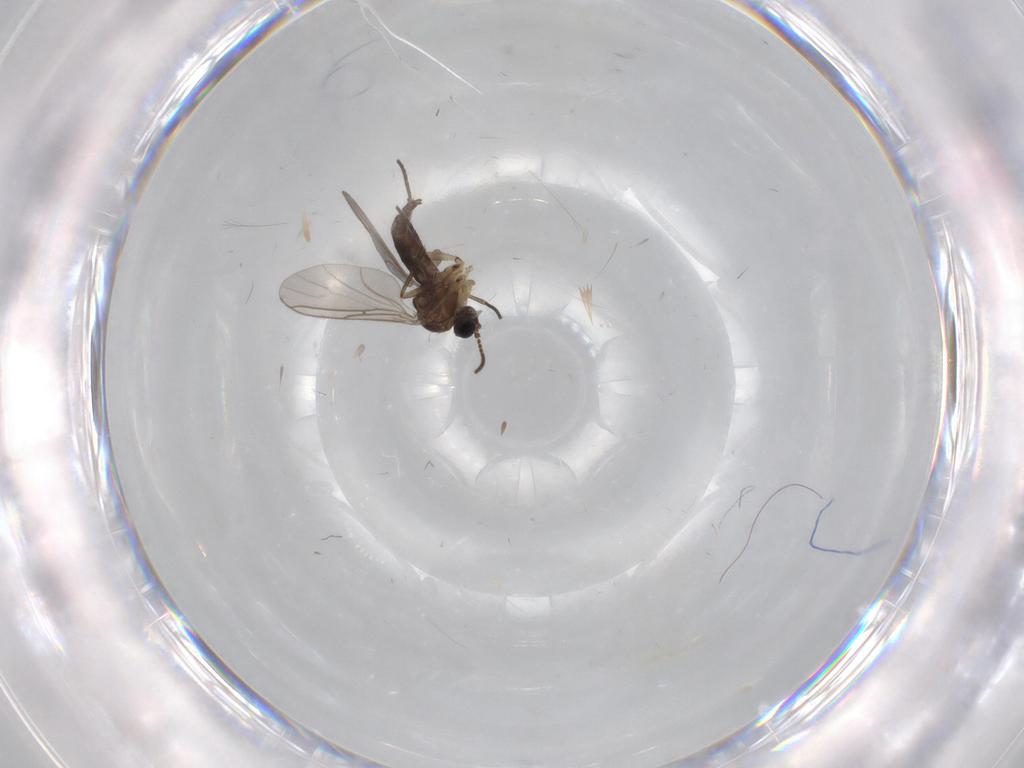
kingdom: Animalia
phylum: Arthropoda
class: Insecta
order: Diptera
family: Sciaridae
